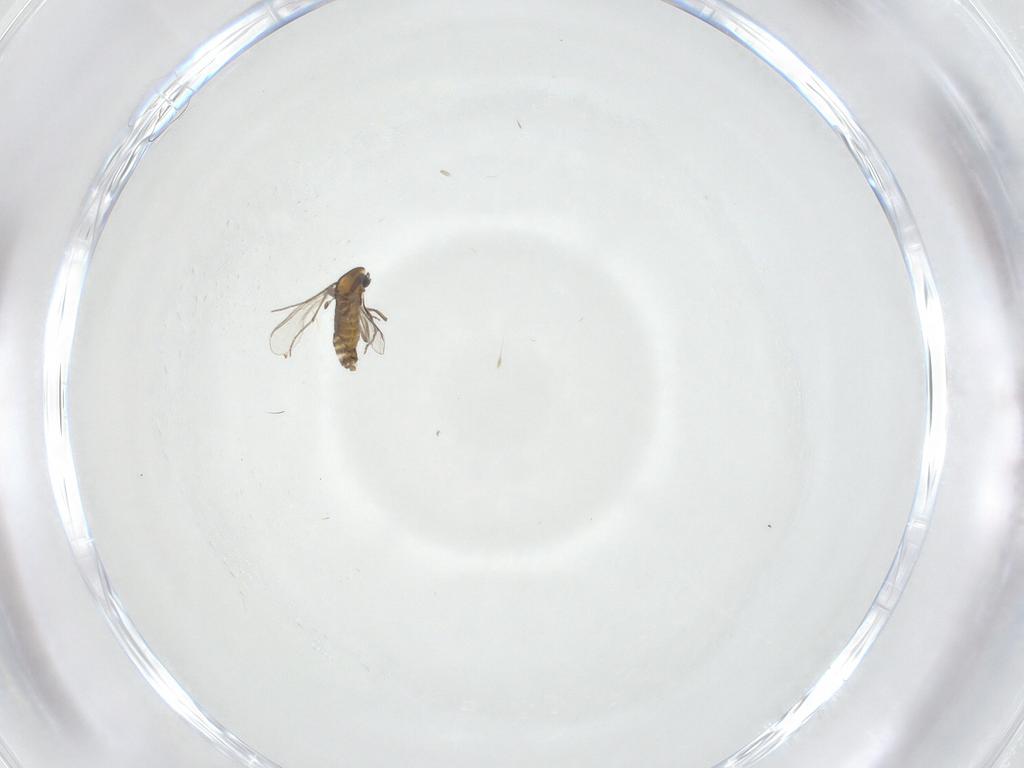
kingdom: Animalia
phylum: Arthropoda
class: Insecta
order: Diptera
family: Chironomidae
